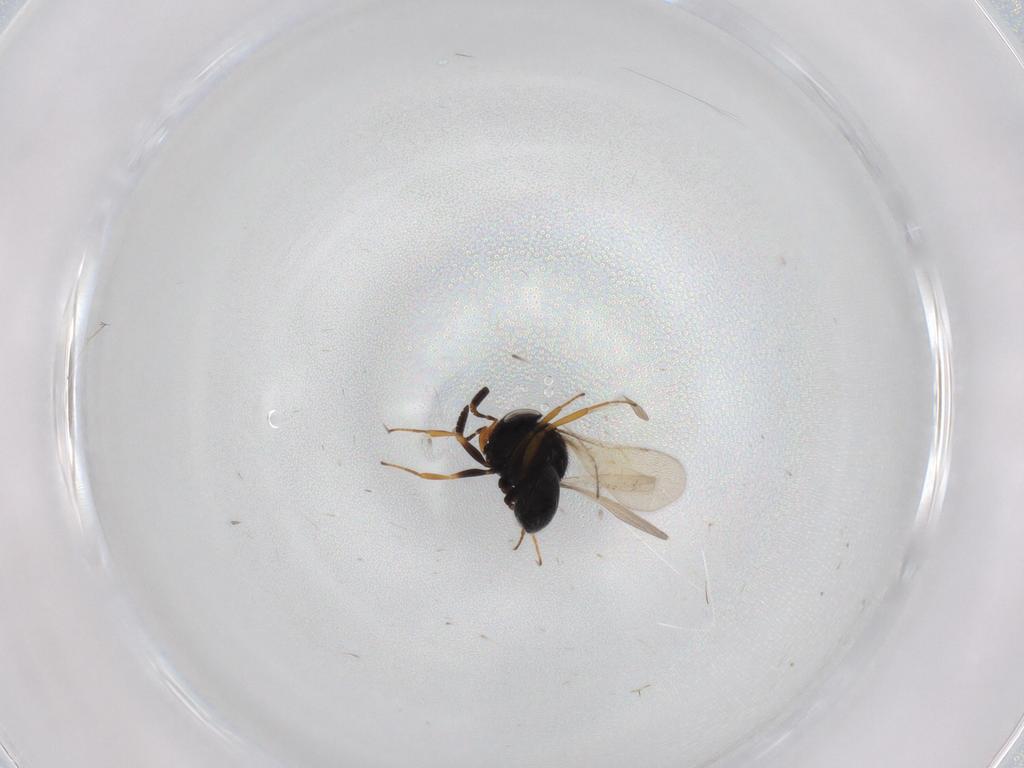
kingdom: Animalia
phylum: Arthropoda
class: Insecta
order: Hymenoptera
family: Scelionidae
